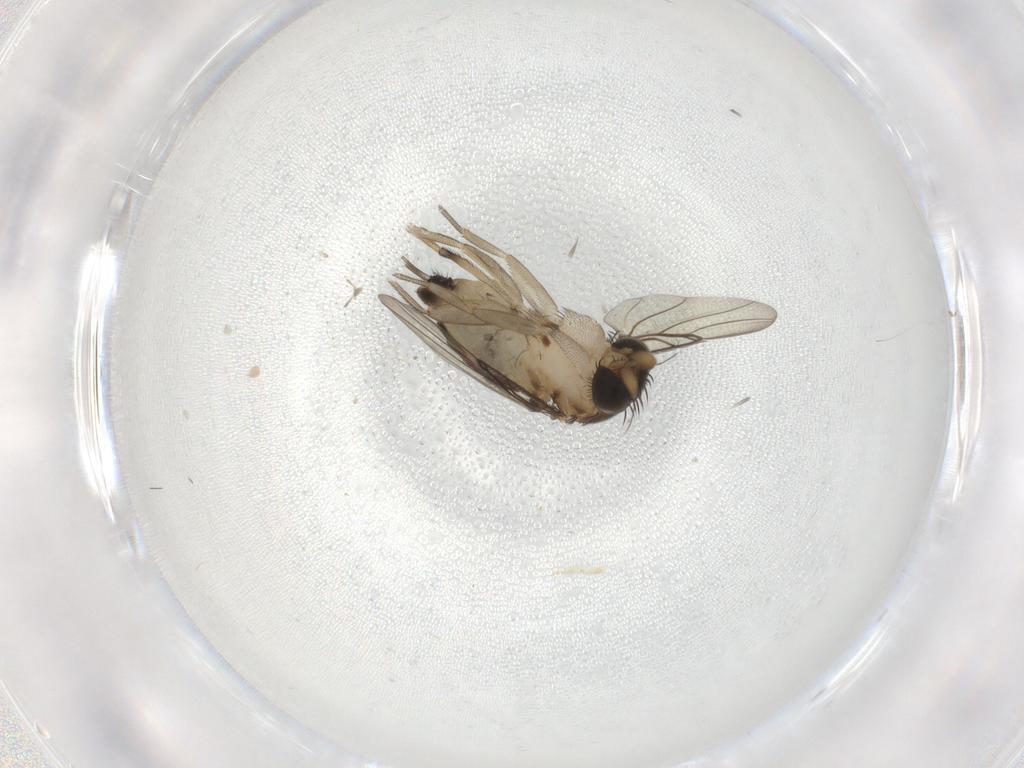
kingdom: Animalia
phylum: Arthropoda
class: Insecta
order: Diptera
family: Phoridae
